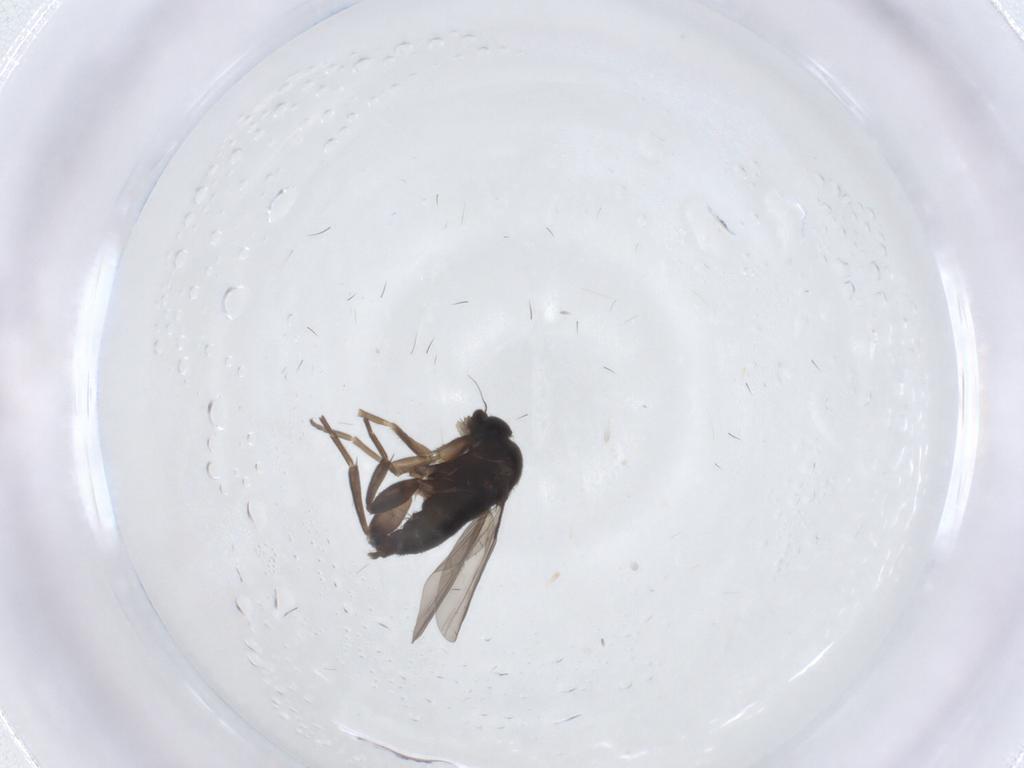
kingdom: Animalia
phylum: Arthropoda
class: Insecta
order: Diptera
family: Phoridae
